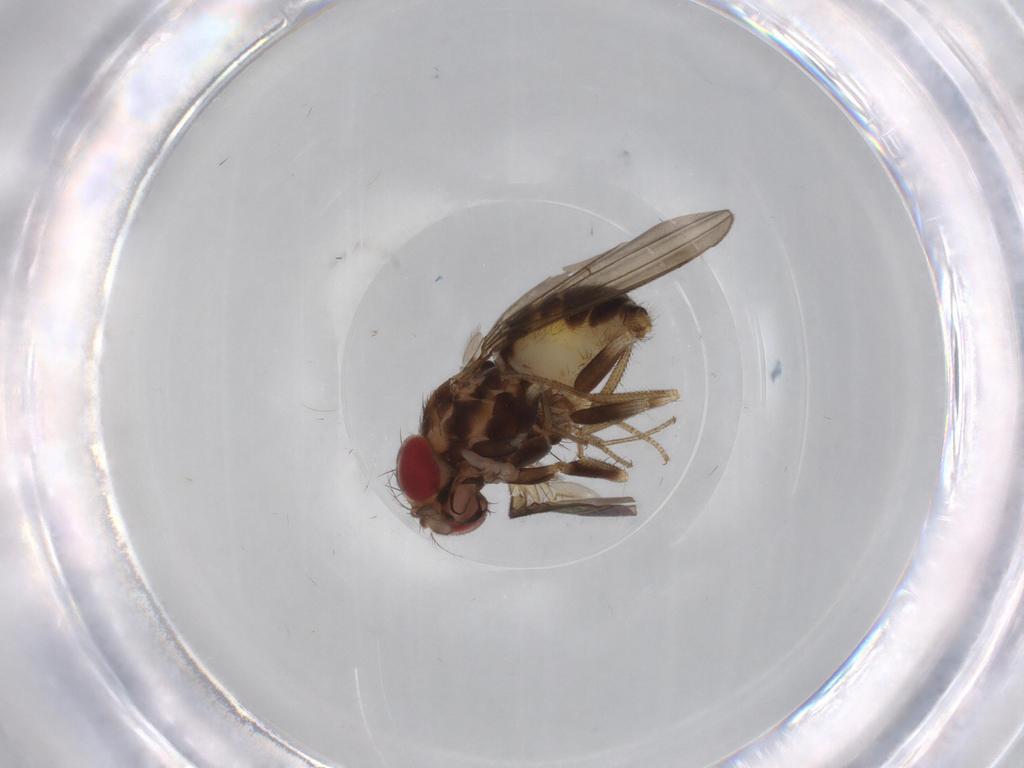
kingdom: Animalia
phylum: Arthropoda
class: Insecta
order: Diptera
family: Drosophilidae
